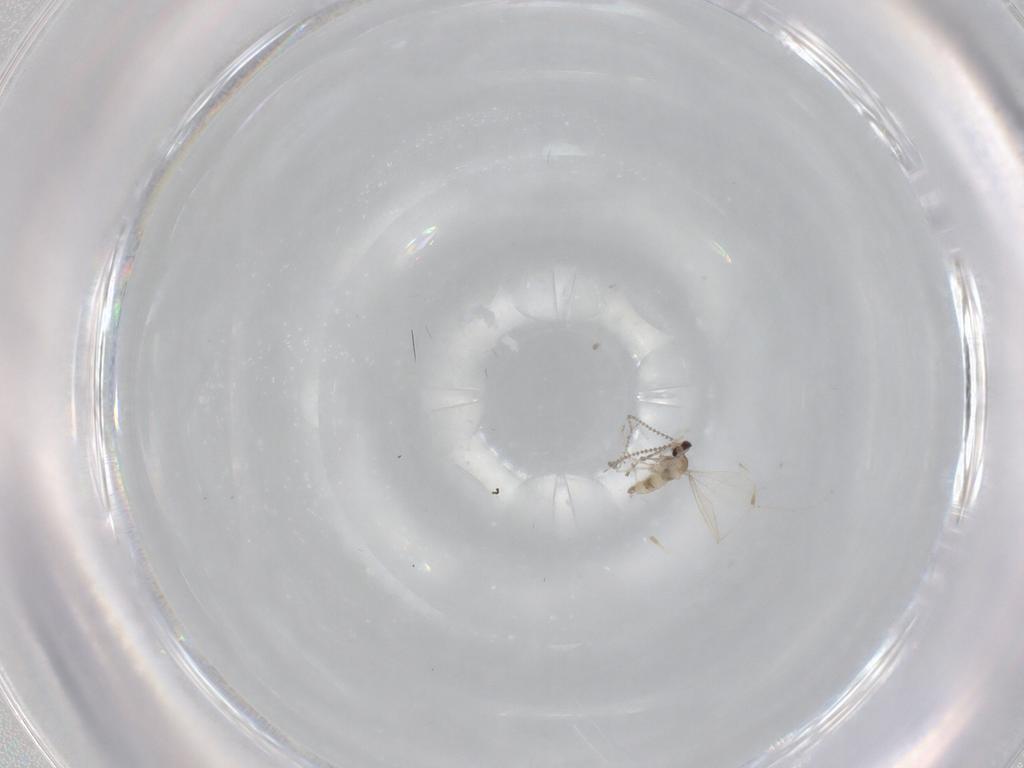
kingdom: Animalia
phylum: Arthropoda
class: Insecta
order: Diptera
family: Cecidomyiidae
